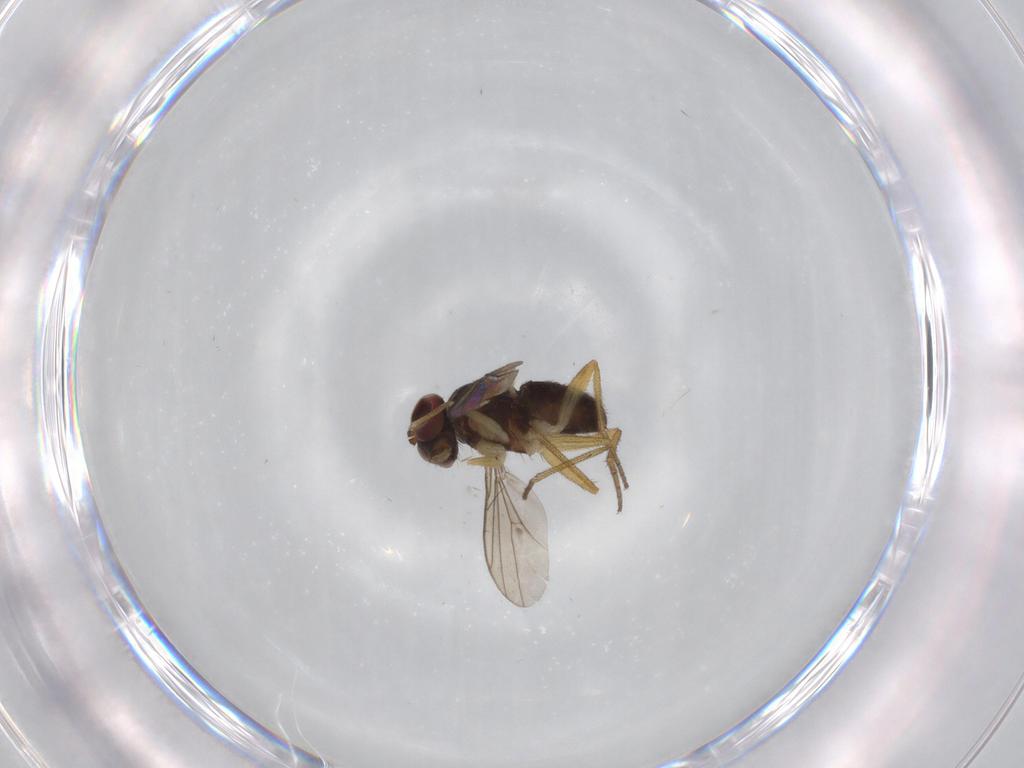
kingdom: Animalia
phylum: Arthropoda
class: Insecta
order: Diptera
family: Dolichopodidae
